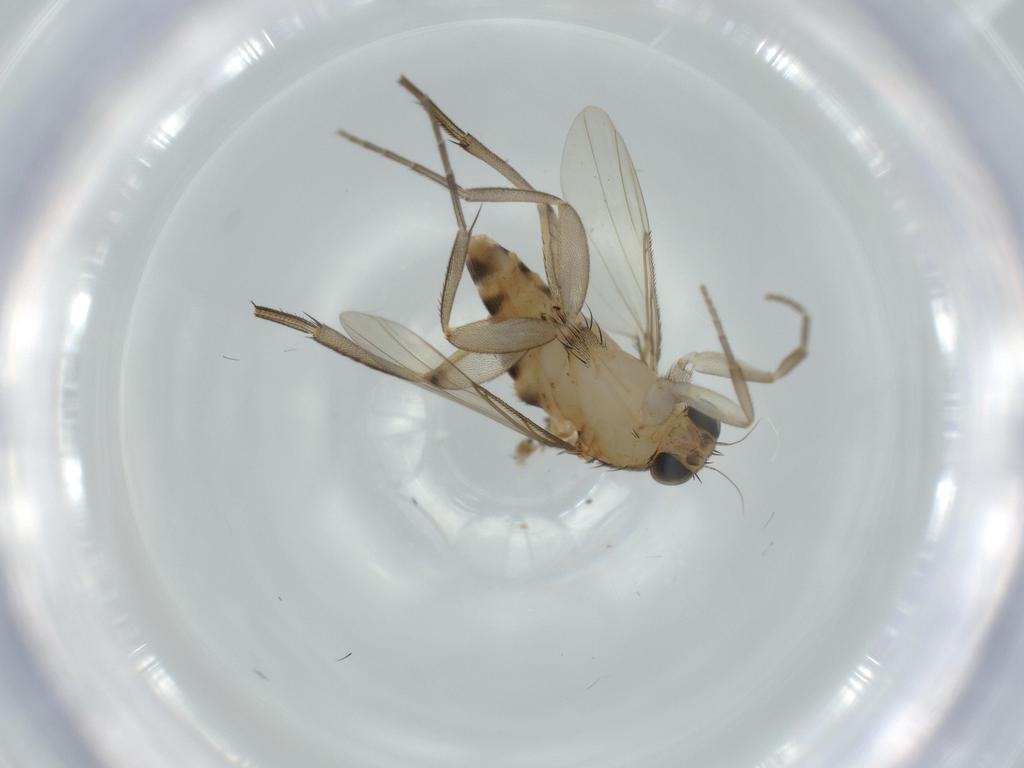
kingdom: Animalia
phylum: Arthropoda
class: Insecta
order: Diptera
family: Phoridae
